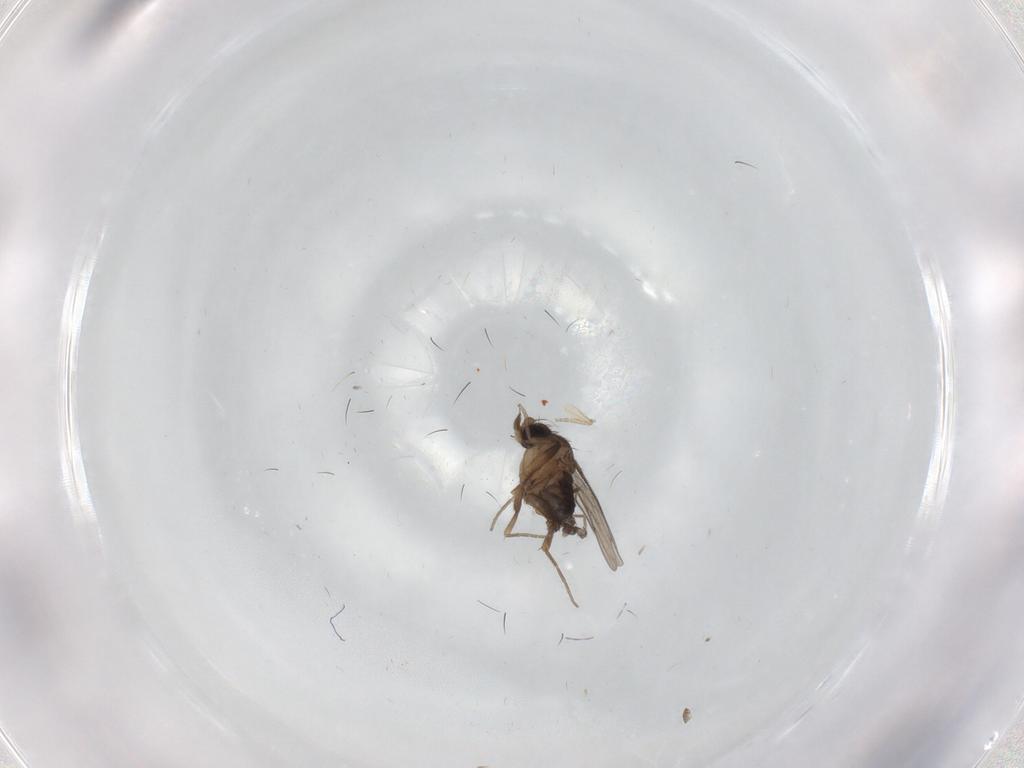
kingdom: Animalia
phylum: Arthropoda
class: Insecta
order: Diptera
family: Sciaridae
